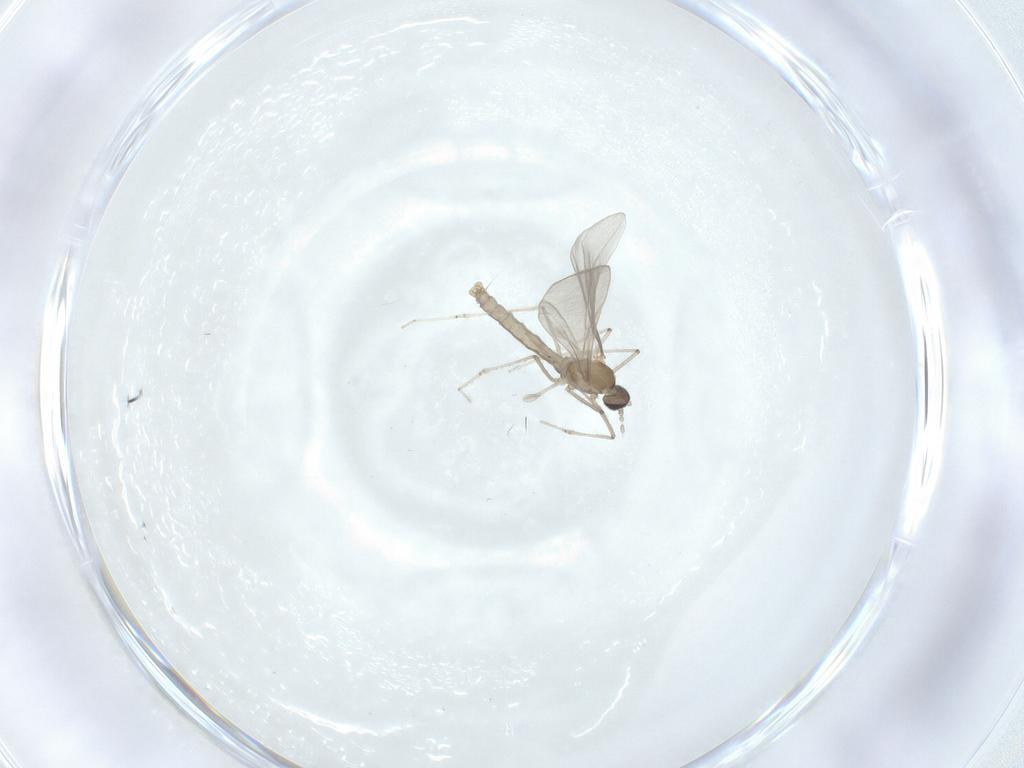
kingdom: Animalia
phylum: Arthropoda
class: Insecta
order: Diptera
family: Cecidomyiidae
